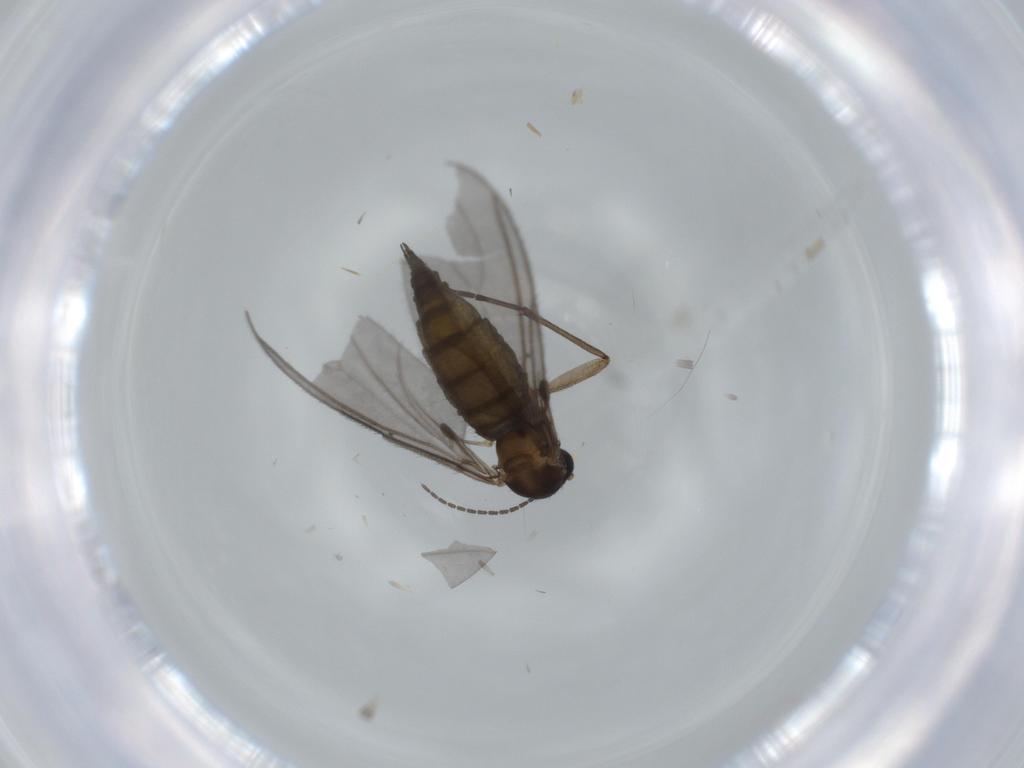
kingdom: Animalia
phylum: Arthropoda
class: Insecta
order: Diptera
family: Sciaridae
